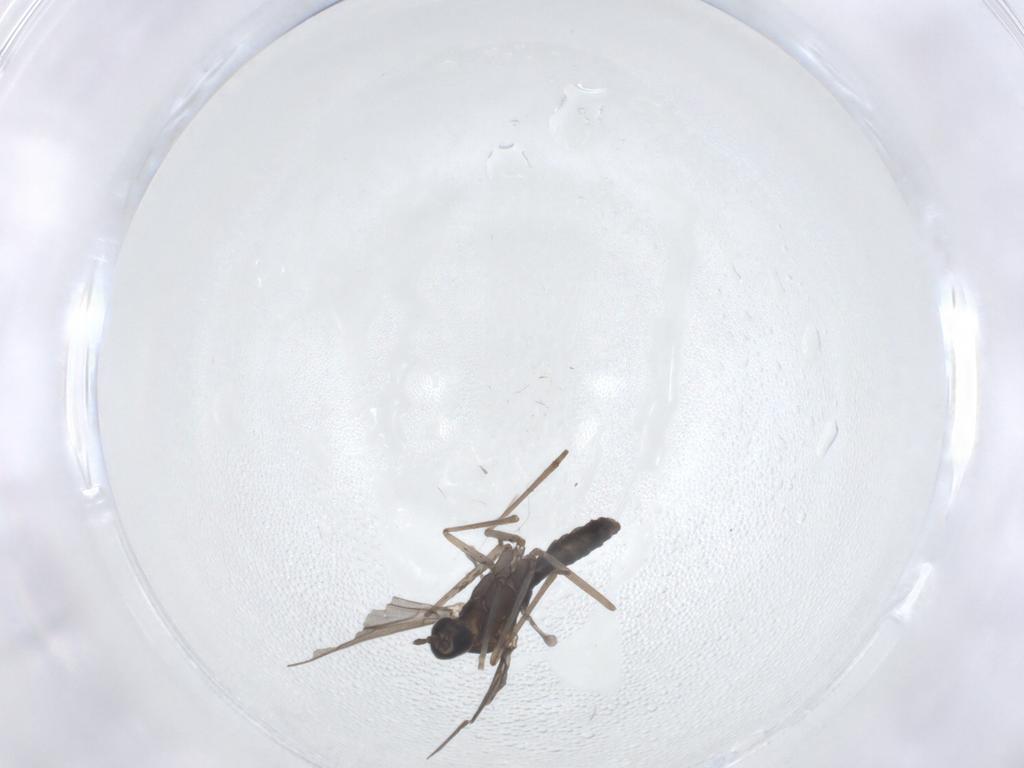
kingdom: Animalia
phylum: Arthropoda
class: Insecta
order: Diptera
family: Cecidomyiidae
